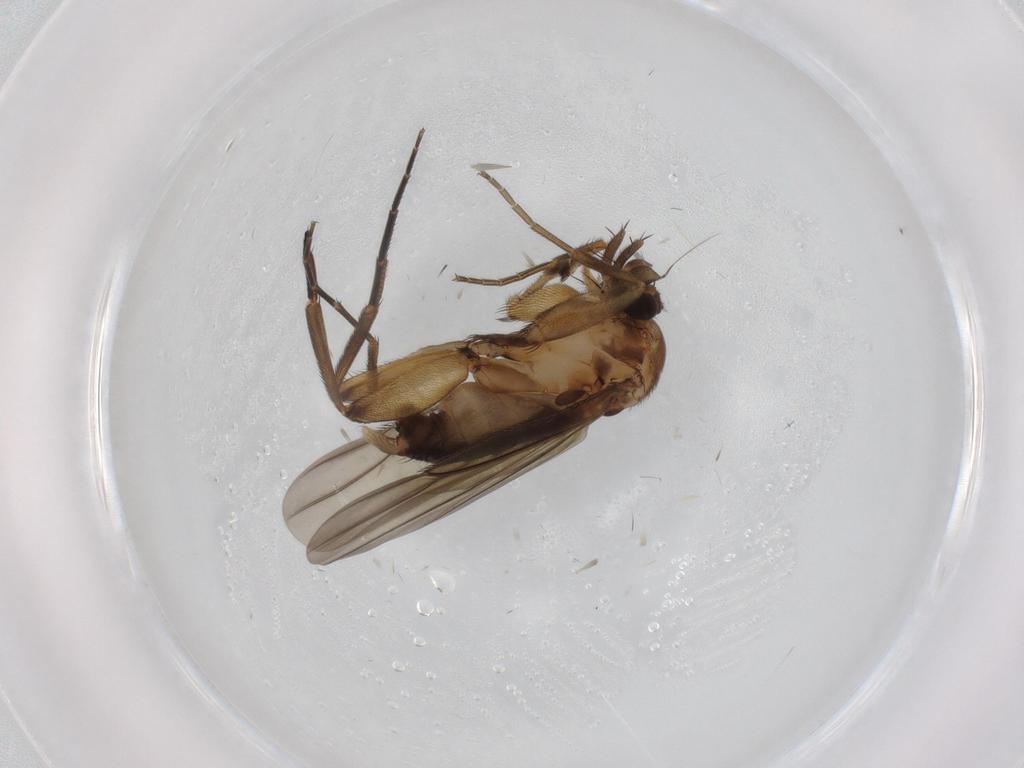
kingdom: Animalia
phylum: Arthropoda
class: Insecta
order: Diptera
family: Phoridae
